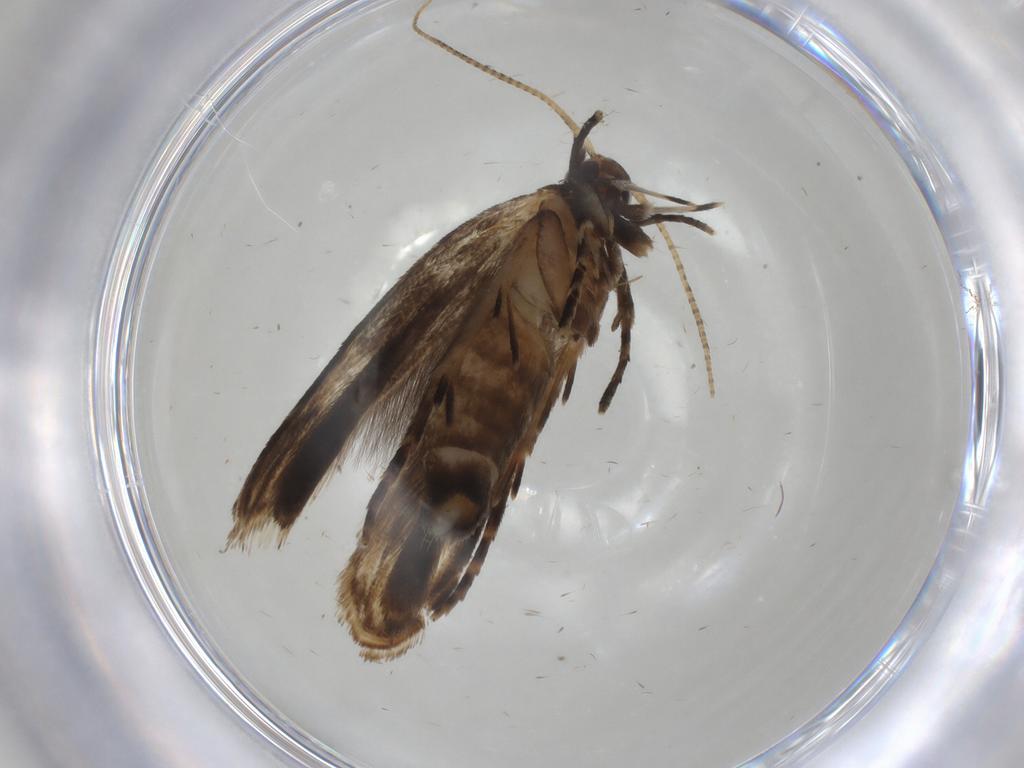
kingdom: Animalia
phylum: Arthropoda
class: Insecta
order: Lepidoptera
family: Gelechiidae
